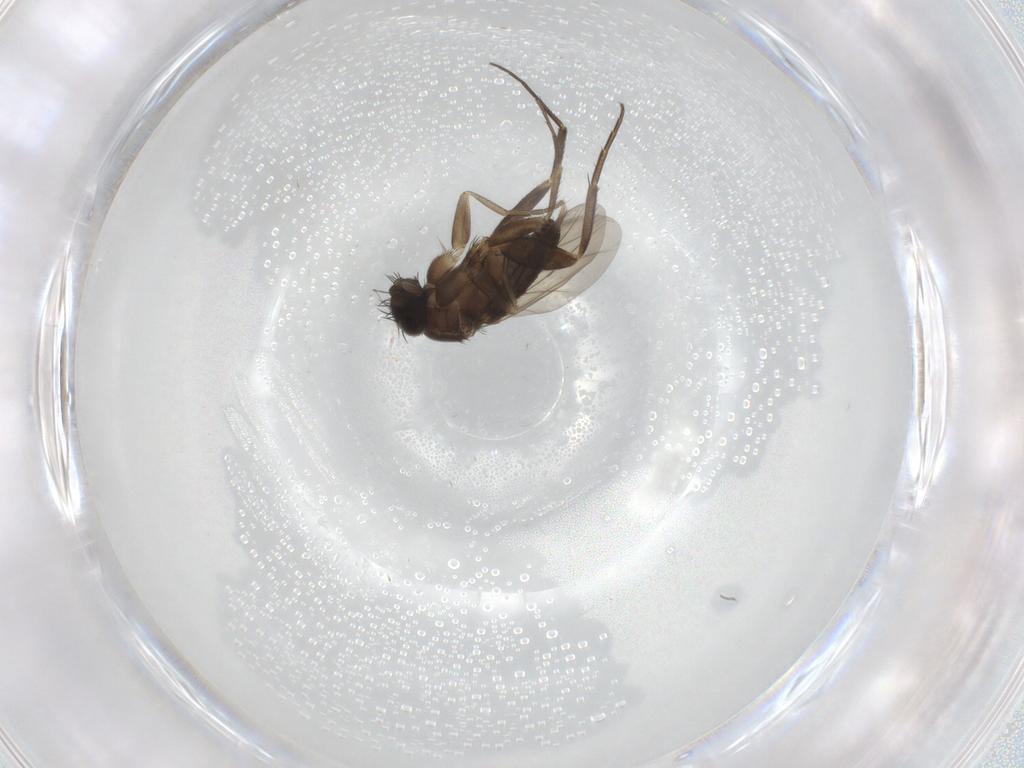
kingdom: Animalia
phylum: Arthropoda
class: Insecta
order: Diptera
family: Phoridae
